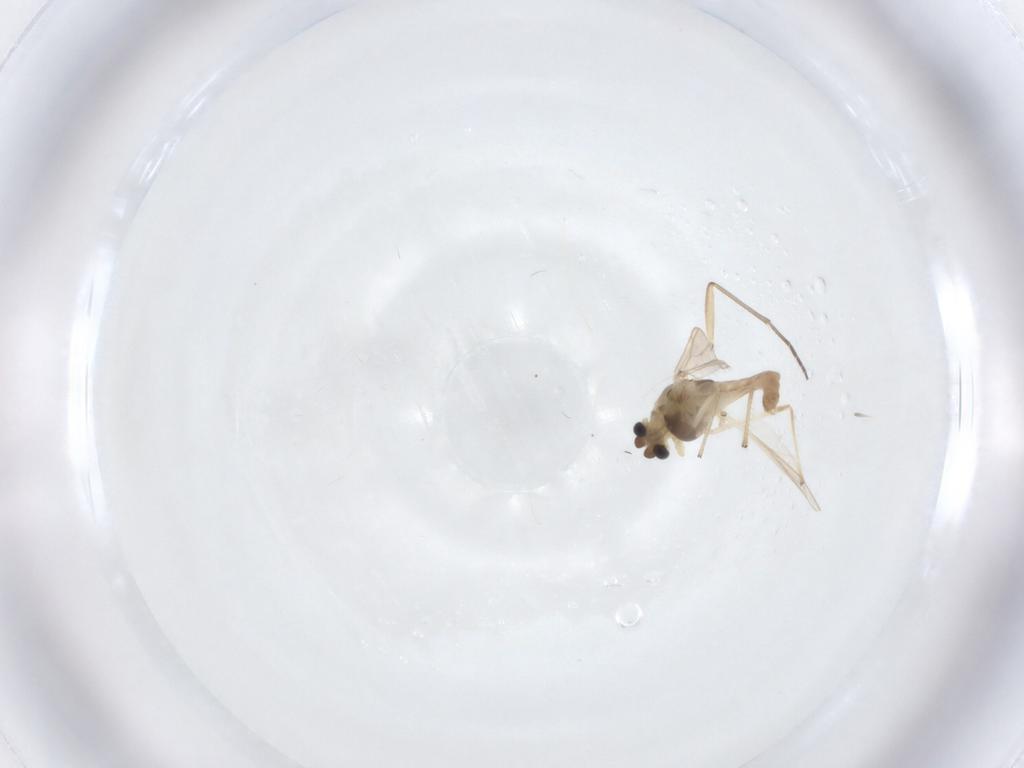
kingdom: Animalia
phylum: Arthropoda
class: Insecta
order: Diptera
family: Chironomidae
